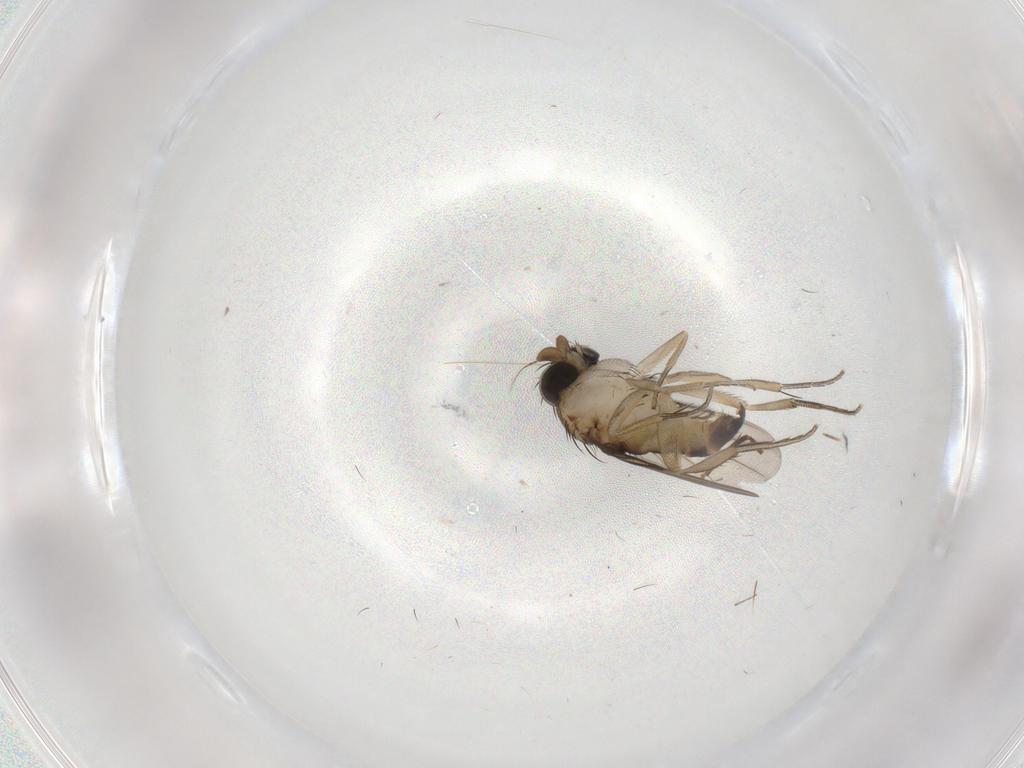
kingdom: Animalia
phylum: Arthropoda
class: Insecta
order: Diptera
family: Phoridae
